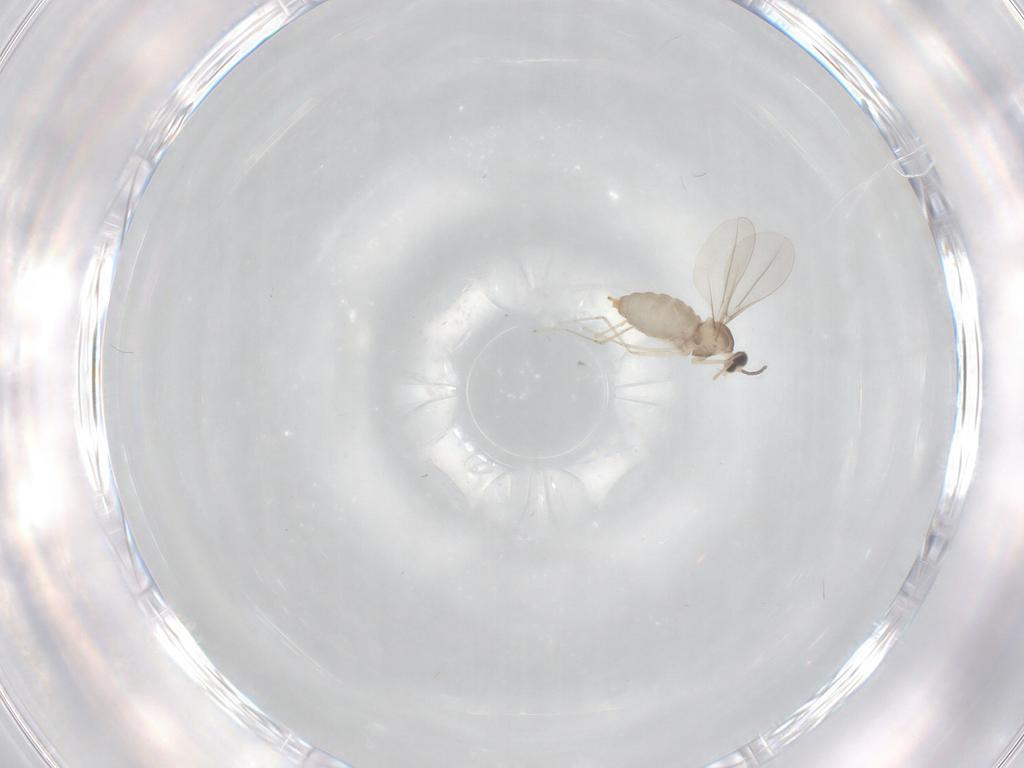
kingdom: Animalia
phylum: Arthropoda
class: Insecta
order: Diptera
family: Cecidomyiidae
